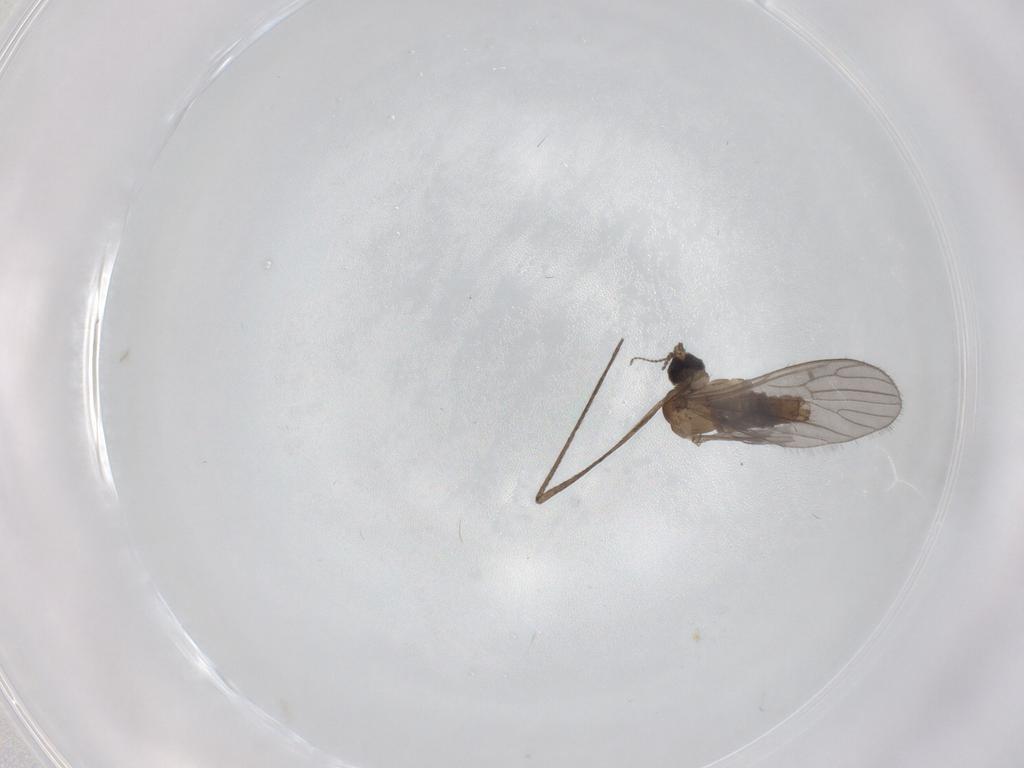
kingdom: Animalia
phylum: Arthropoda
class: Insecta
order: Diptera
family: Limoniidae
